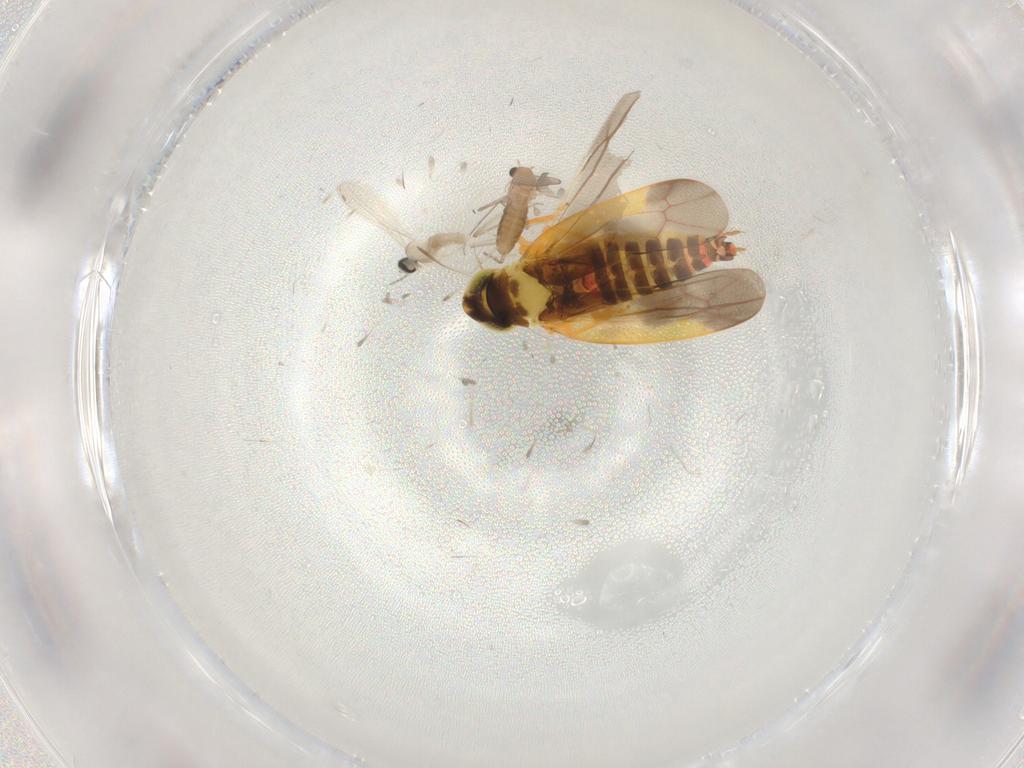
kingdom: Animalia
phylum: Arthropoda
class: Insecta
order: Diptera
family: Chironomidae
